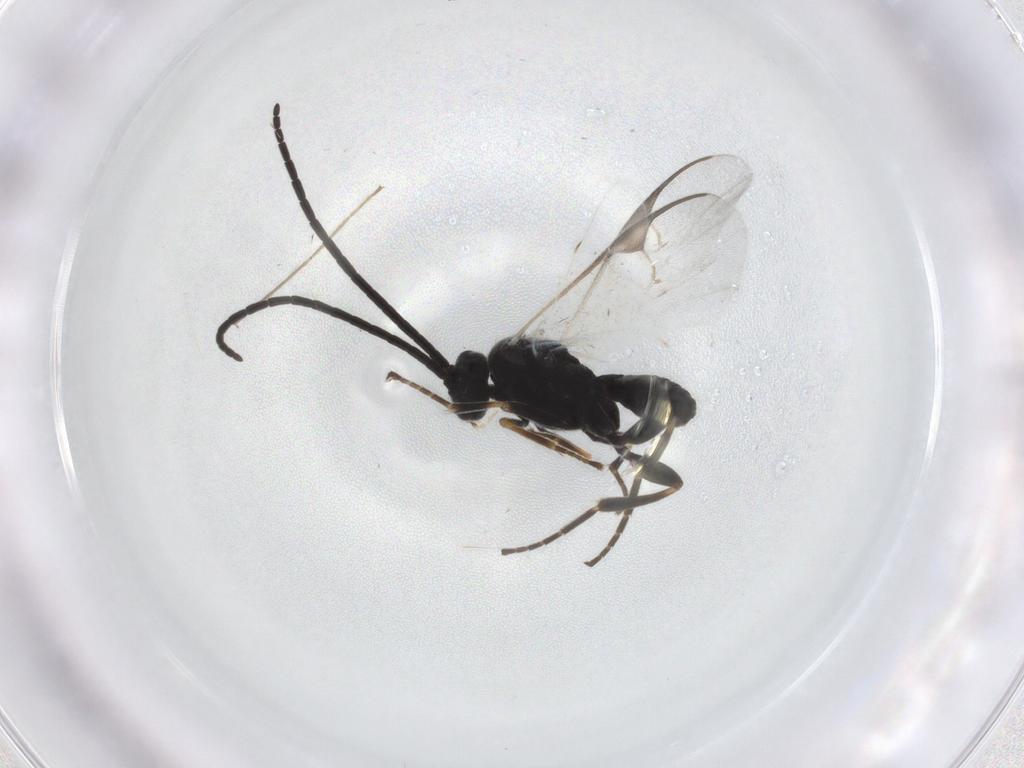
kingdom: Animalia
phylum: Arthropoda
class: Insecta
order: Hymenoptera
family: Braconidae
